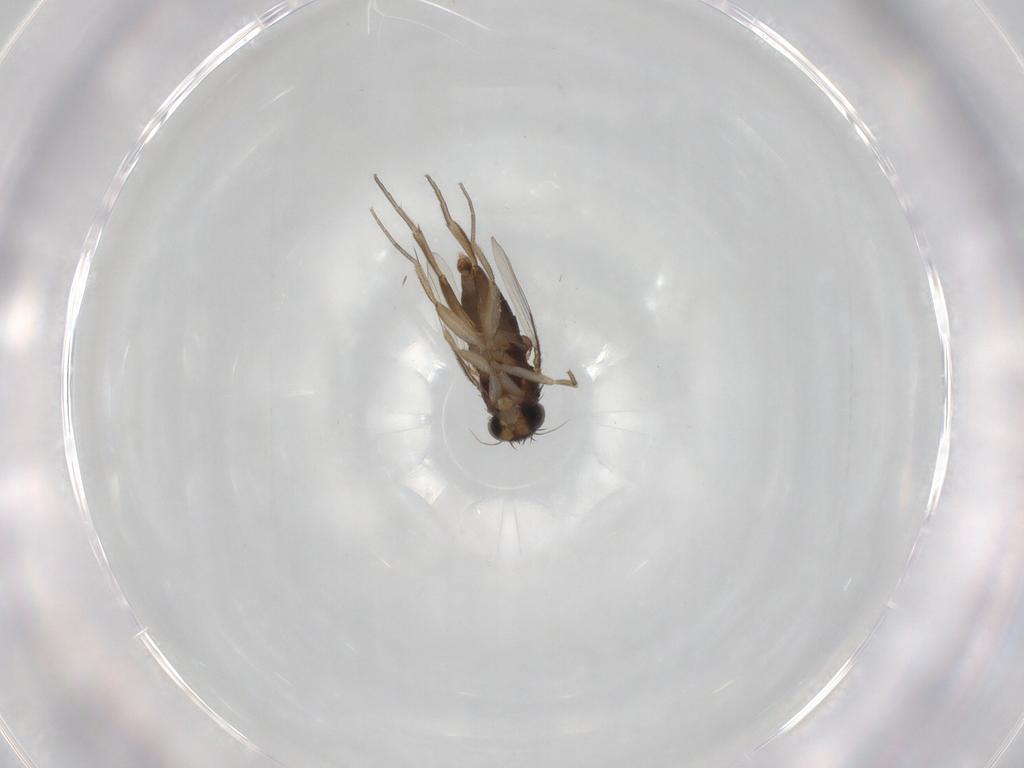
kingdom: Animalia
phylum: Arthropoda
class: Insecta
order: Diptera
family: Phoridae
